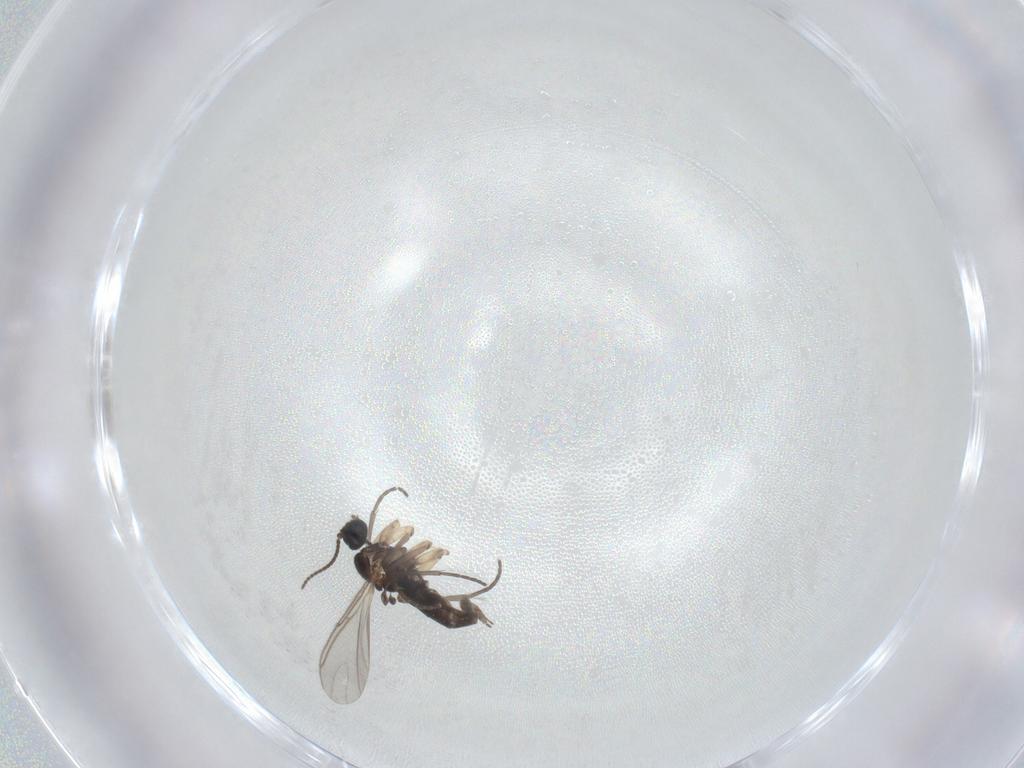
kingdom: Animalia
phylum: Arthropoda
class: Insecta
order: Diptera
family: Sciaridae
